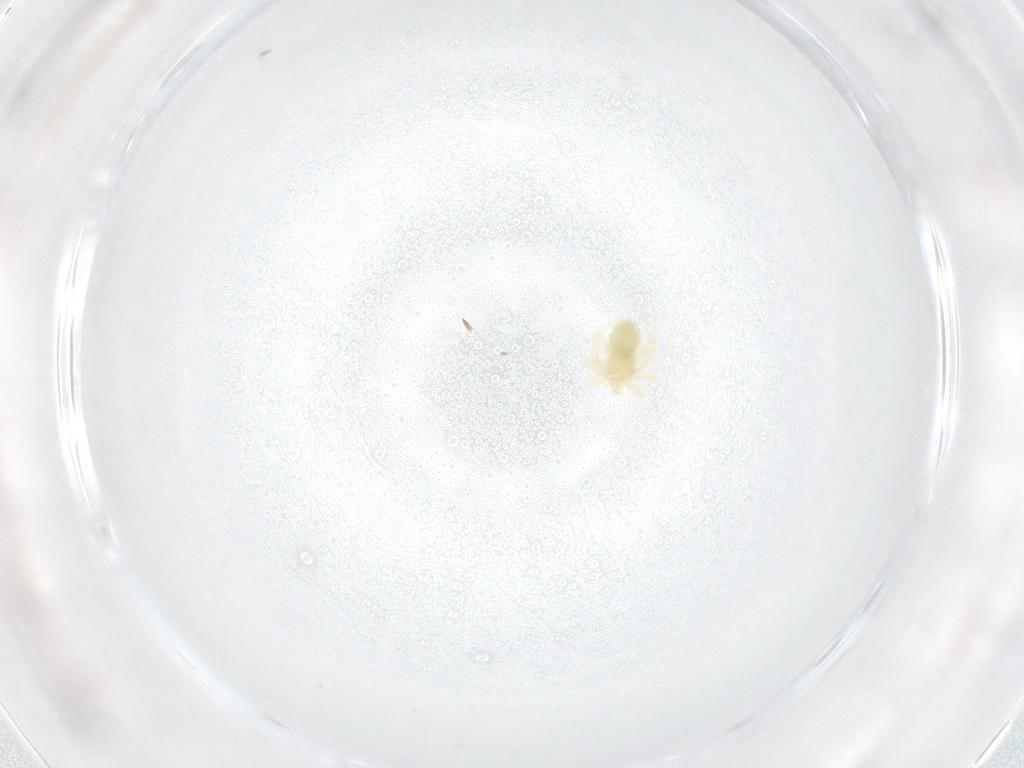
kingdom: Animalia
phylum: Arthropoda
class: Arachnida
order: Trombidiformes
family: Anystidae
